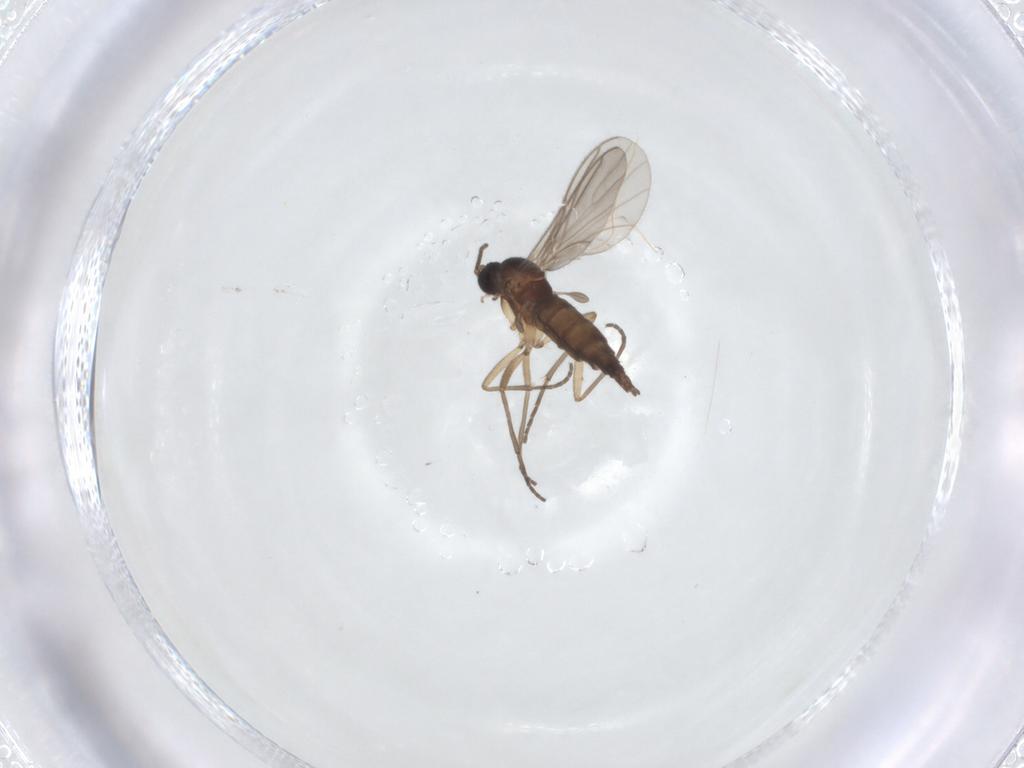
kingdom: Animalia
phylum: Arthropoda
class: Insecta
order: Diptera
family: Sciaridae
